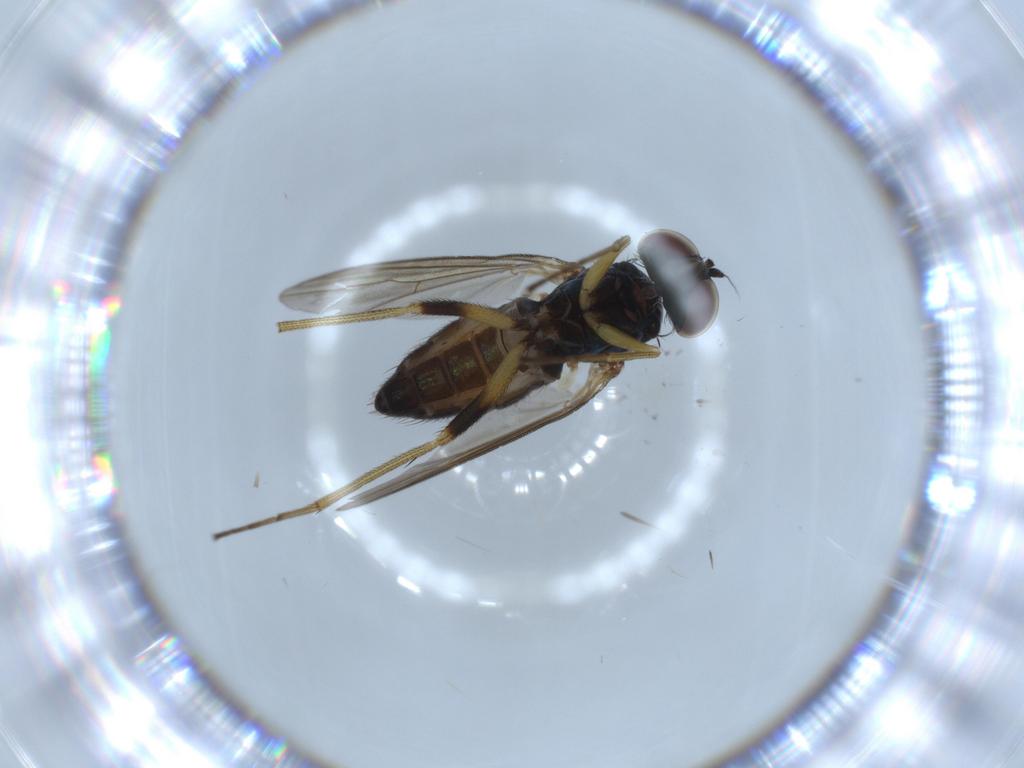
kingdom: Animalia
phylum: Arthropoda
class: Insecta
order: Diptera
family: Dolichopodidae
